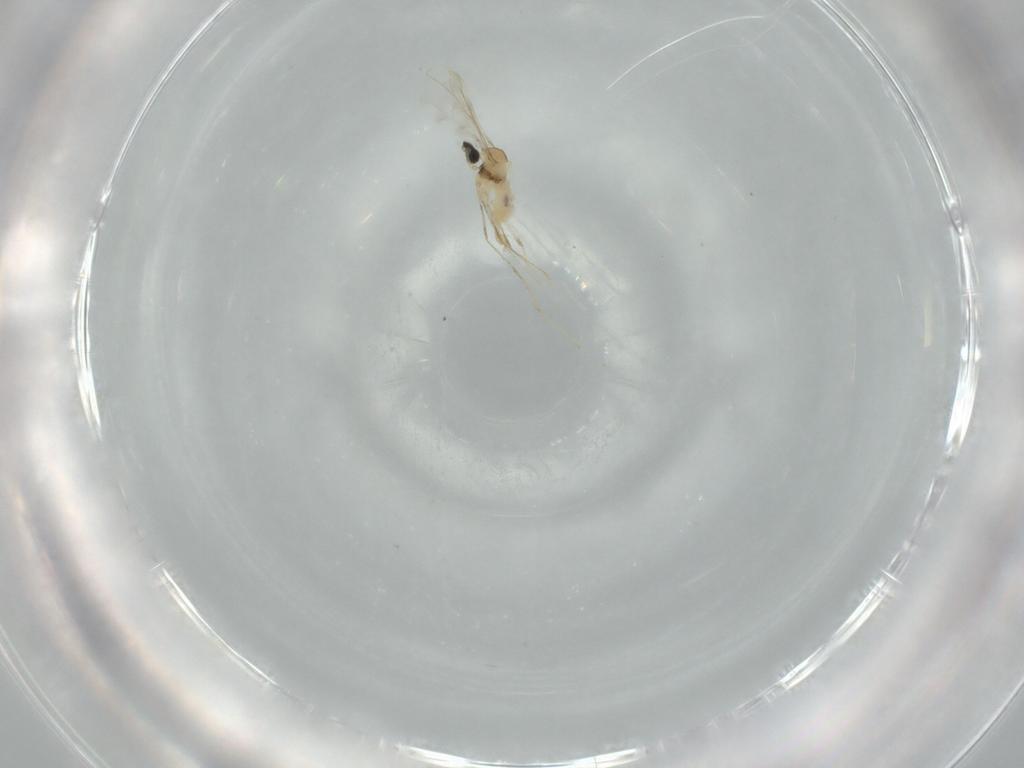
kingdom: Animalia
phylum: Arthropoda
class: Insecta
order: Diptera
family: Cecidomyiidae
